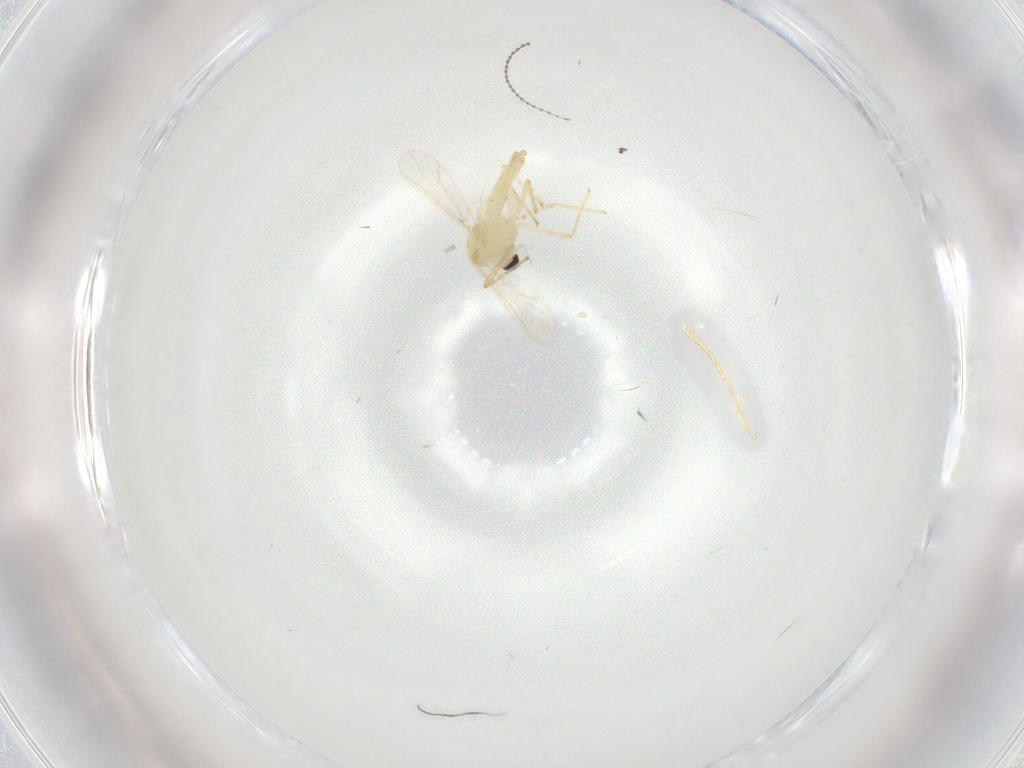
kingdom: Animalia
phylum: Arthropoda
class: Insecta
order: Diptera
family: Chironomidae
